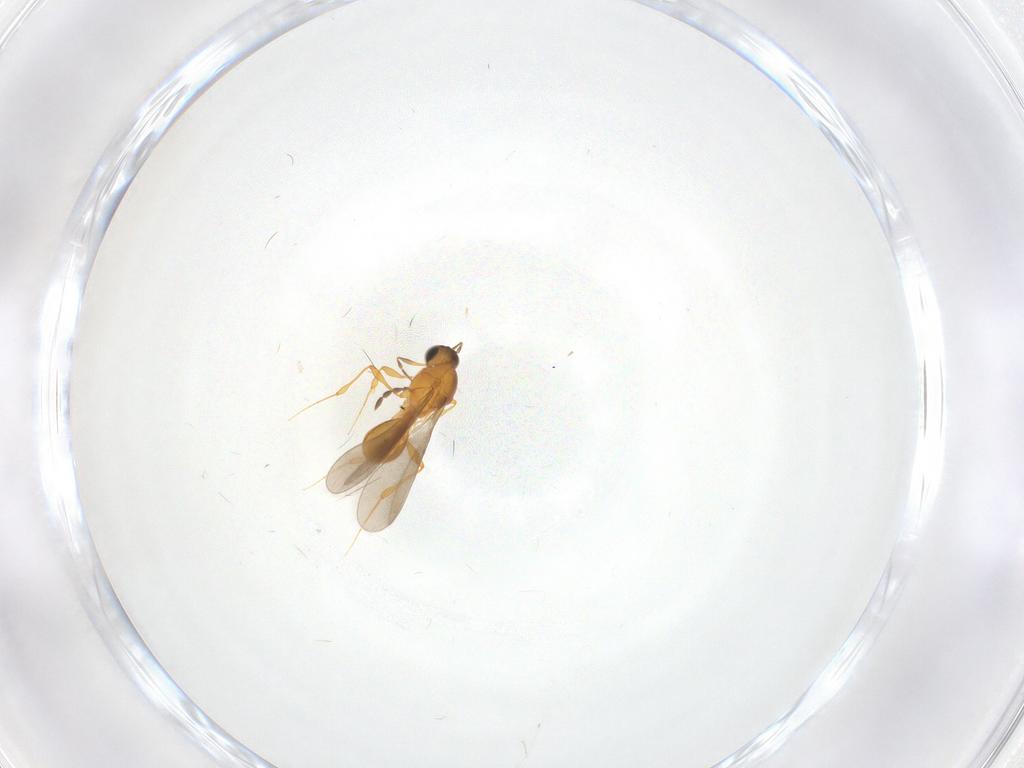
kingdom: Animalia
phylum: Arthropoda
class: Insecta
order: Hymenoptera
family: Platygastridae
